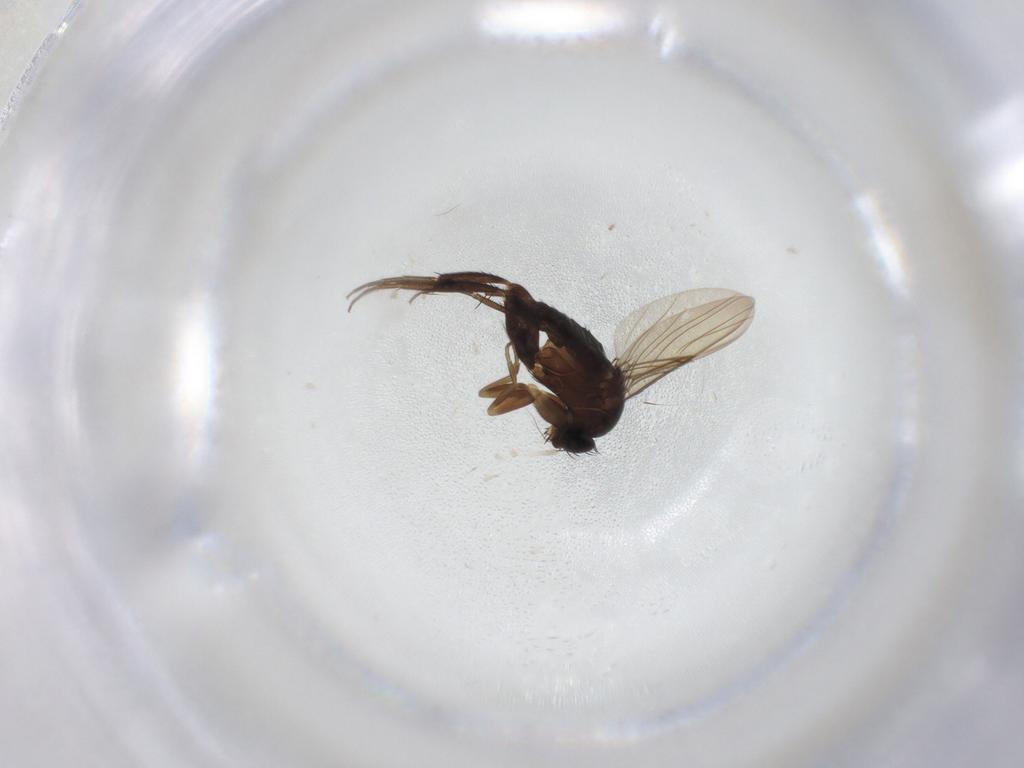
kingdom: Animalia
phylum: Arthropoda
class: Insecta
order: Diptera
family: Phoridae
